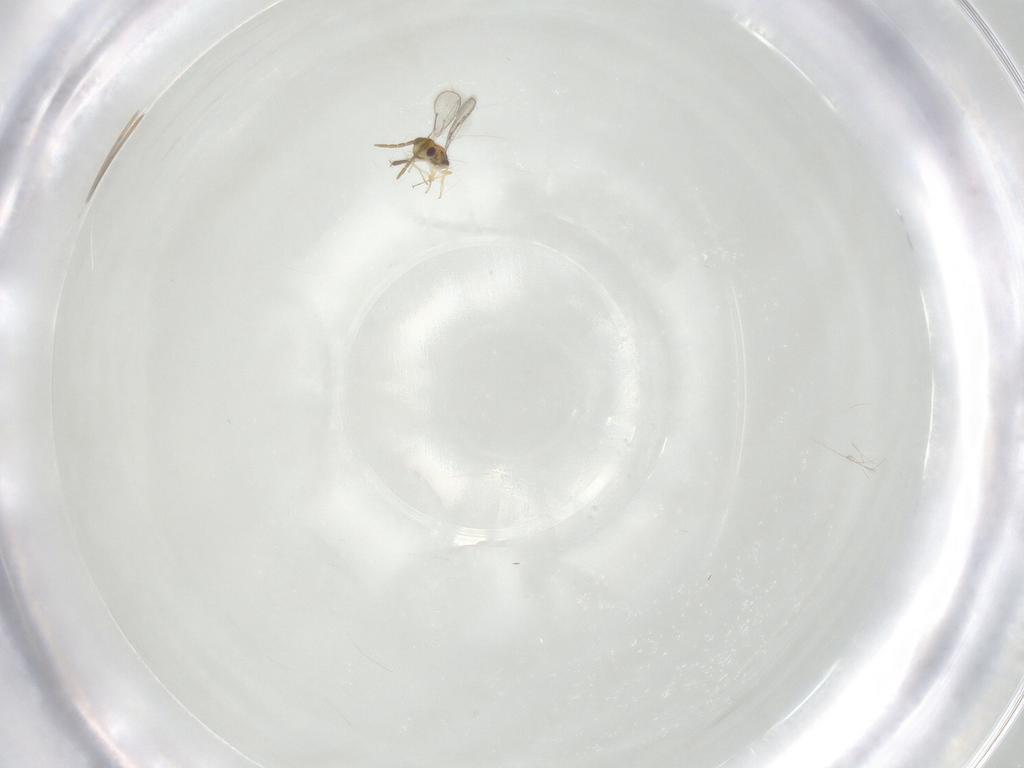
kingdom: Animalia
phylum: Arthropoda
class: Insecta
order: Hymenoptera
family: Aphelinidae
